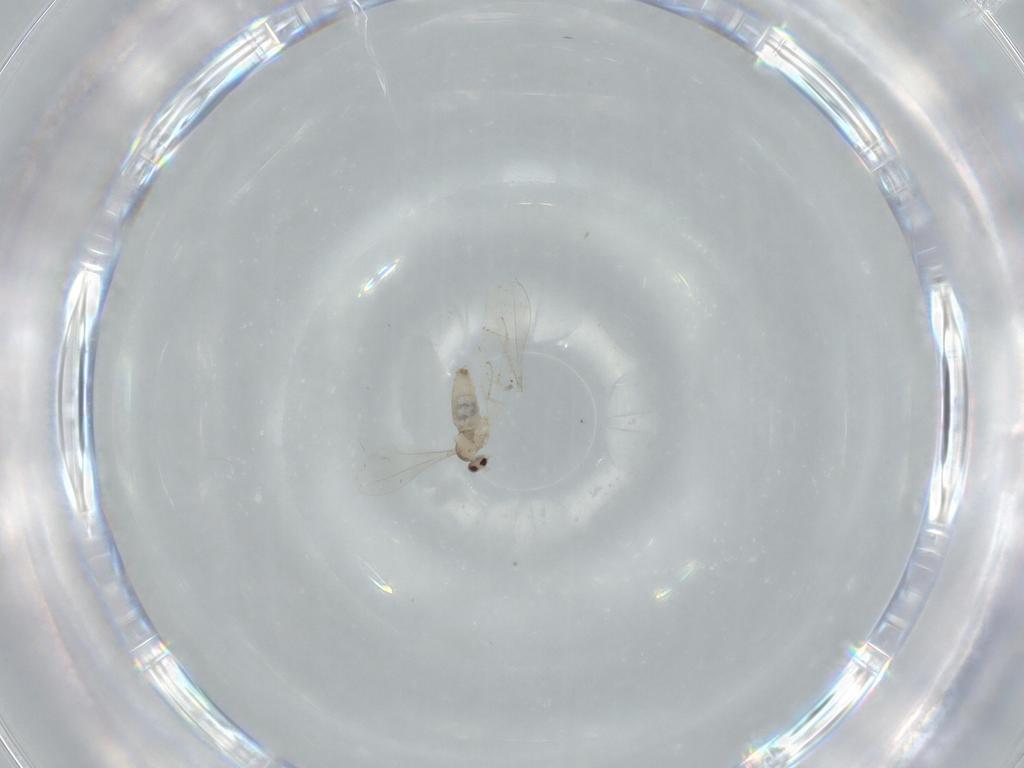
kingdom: Animalia
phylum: Arthropoda
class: Insecta
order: Diptera
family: Cecidomyiidae
